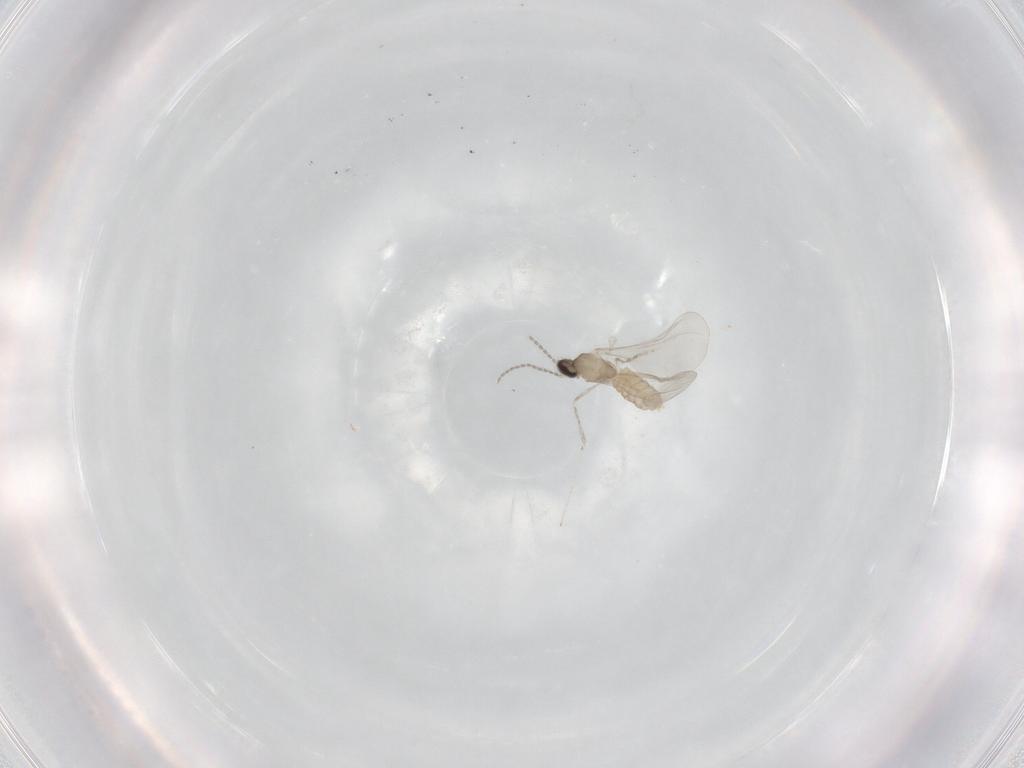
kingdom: Animalia
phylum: Arthropoda
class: Insecta
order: Diptera
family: Cecidomyiidae
